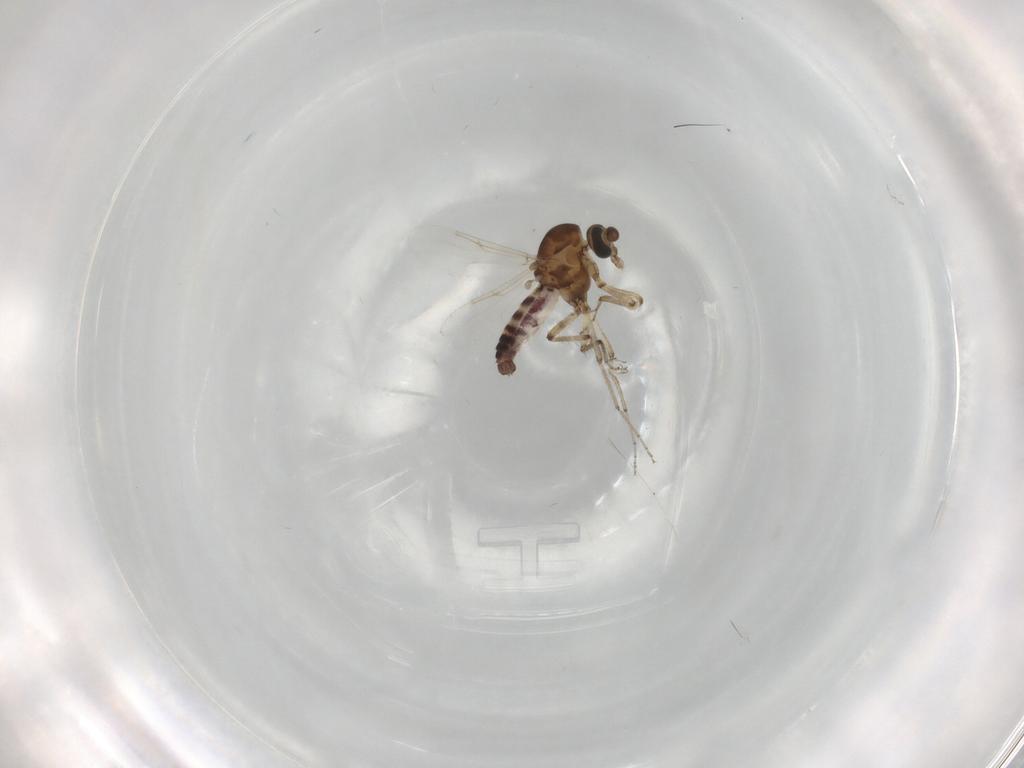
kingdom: Animalia
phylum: Arthropoda
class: Insecta
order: Diptera
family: Ceratopogonidae
